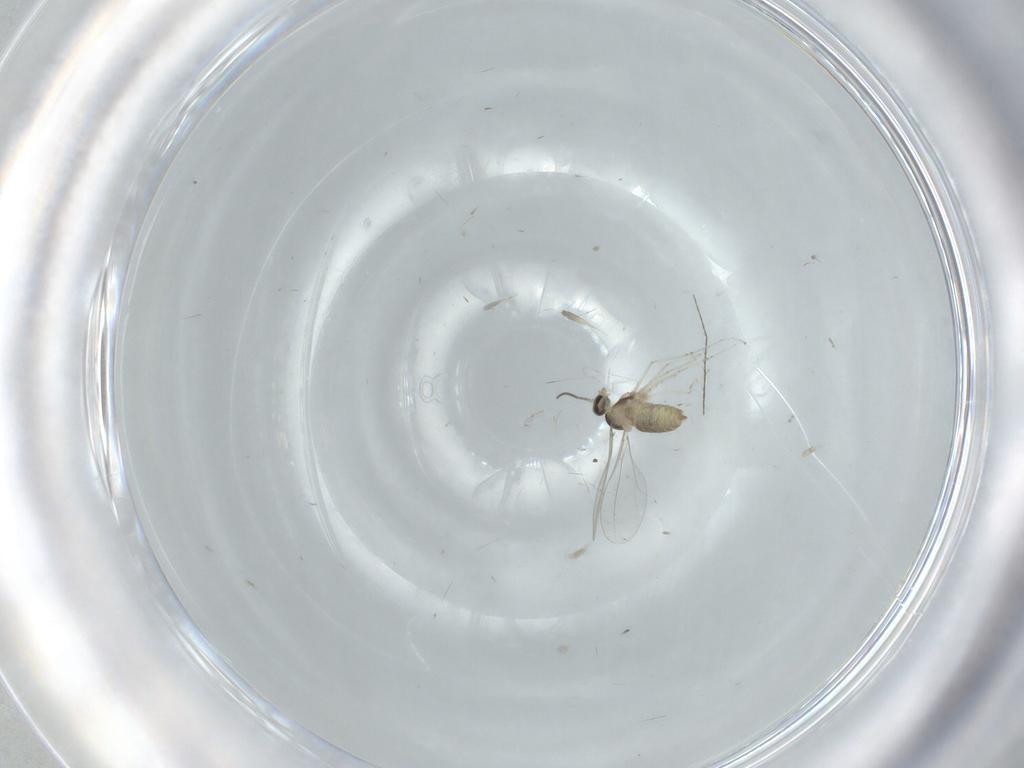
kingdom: Animalia
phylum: Arthropoda
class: Insecta
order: Diptera
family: Cecidomyiidae
